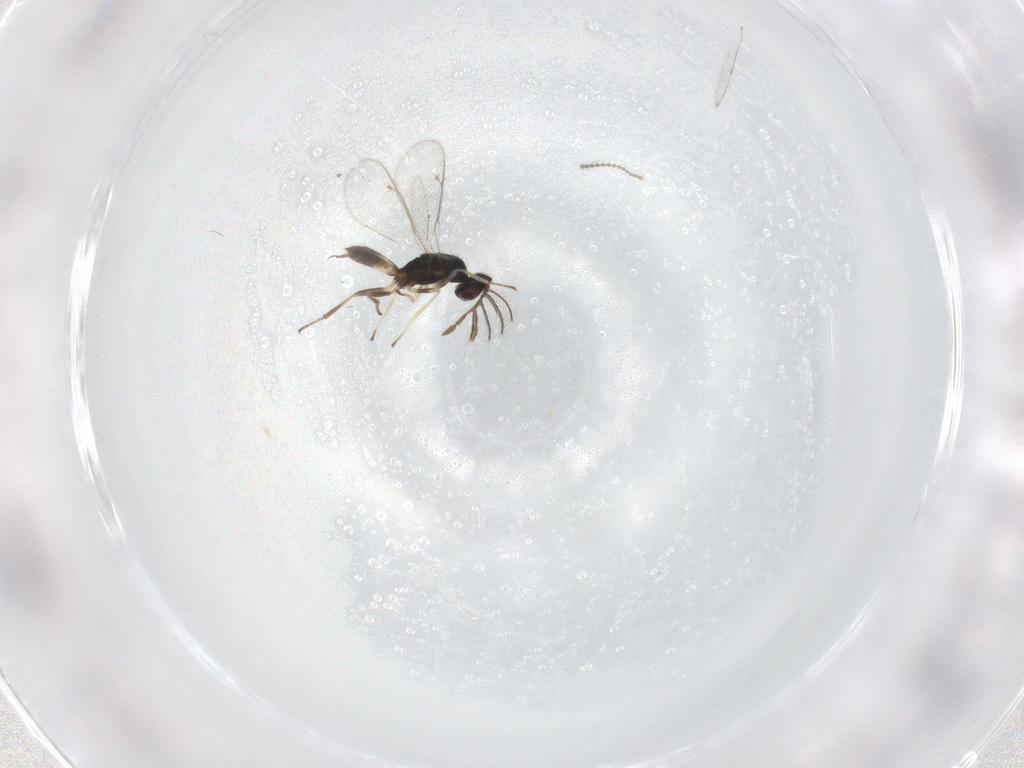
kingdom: Animalia
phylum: Arthropoda
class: Insecta
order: Hymenoptera
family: Eulophidae
